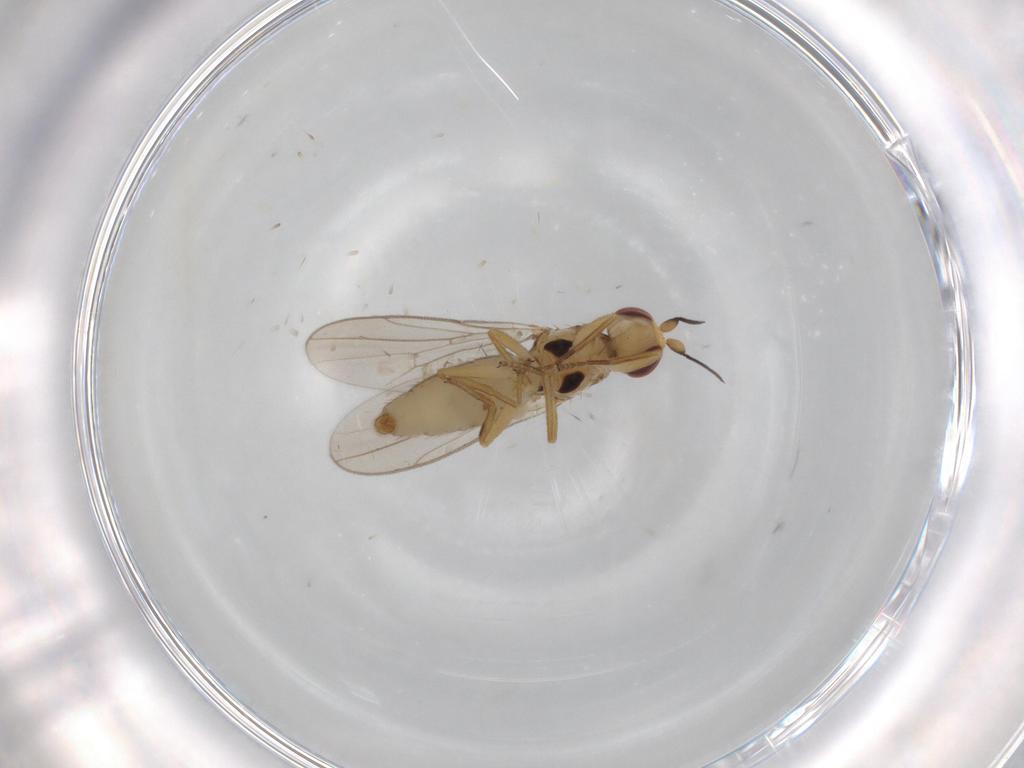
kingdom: Animalia
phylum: Arthropoda
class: Insecta
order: Diptera
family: Chloropidae
